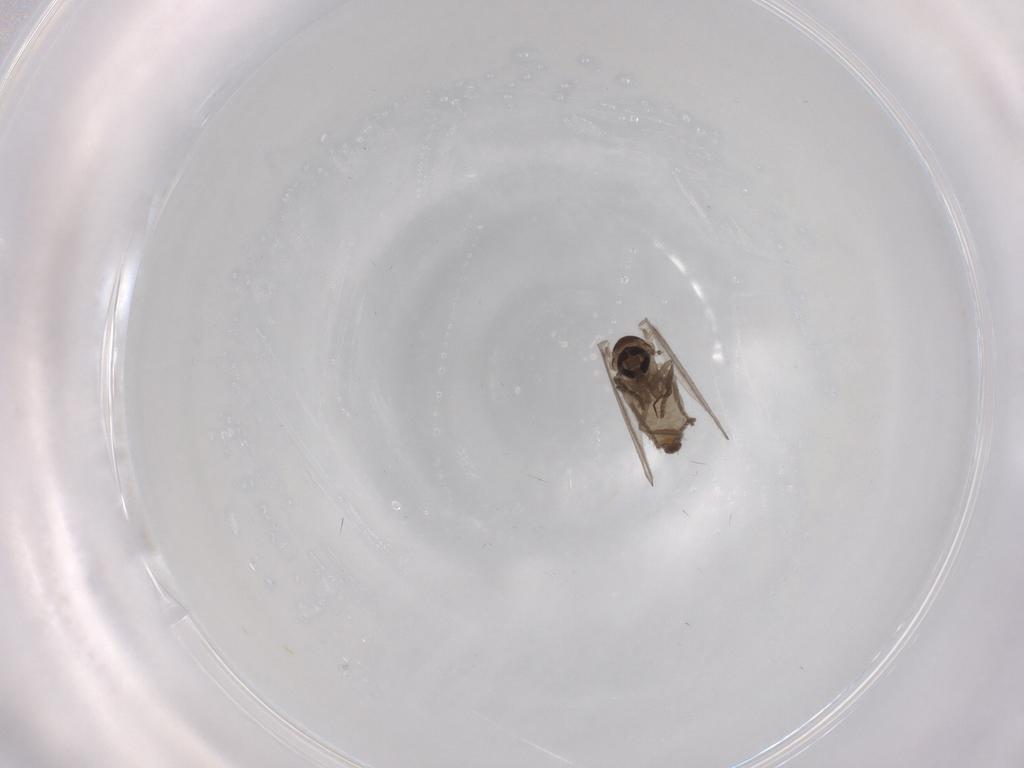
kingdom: Animalia
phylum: Arthropoda
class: Insecta
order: Diptera
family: Psychodidae
